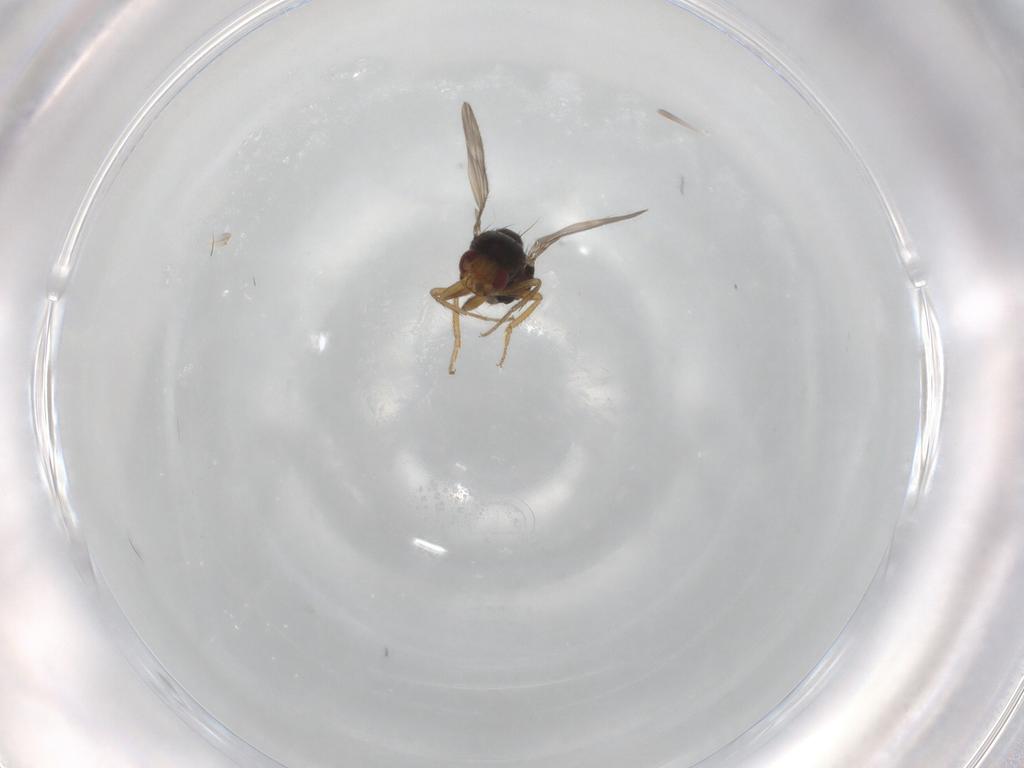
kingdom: Animalia
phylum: Arthropoda
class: Insecta
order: Diptera
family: Sphaeroceridae
